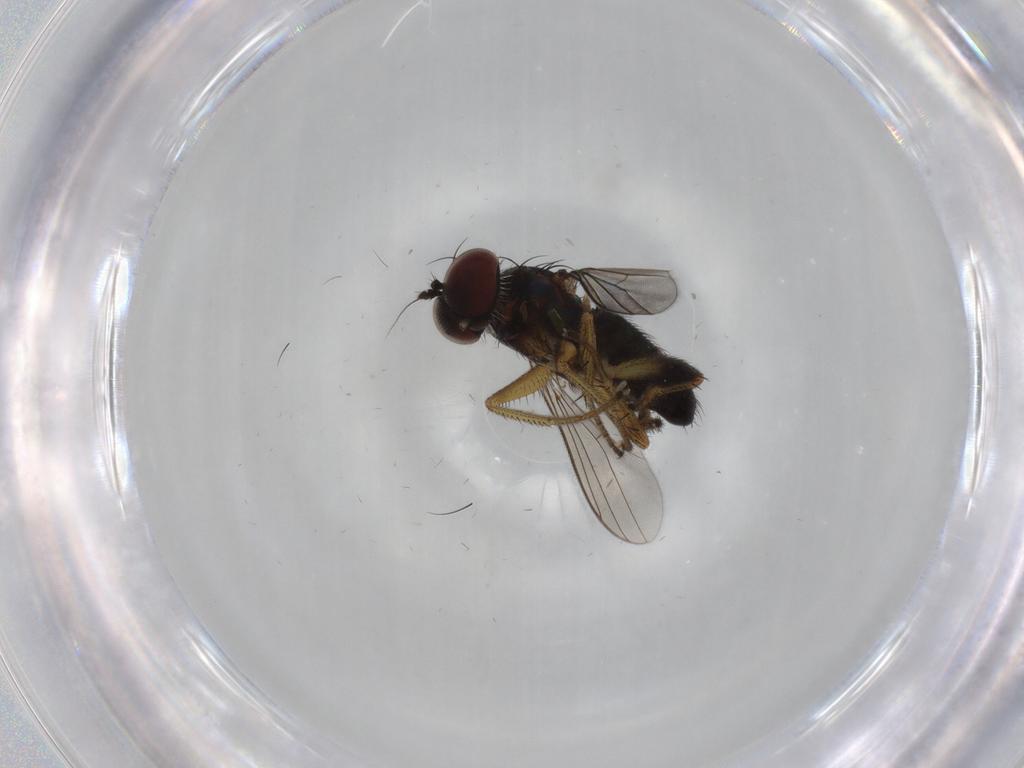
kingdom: Animalia
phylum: Arthropoda
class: Insecta
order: Diptera
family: Dolichopodidae
